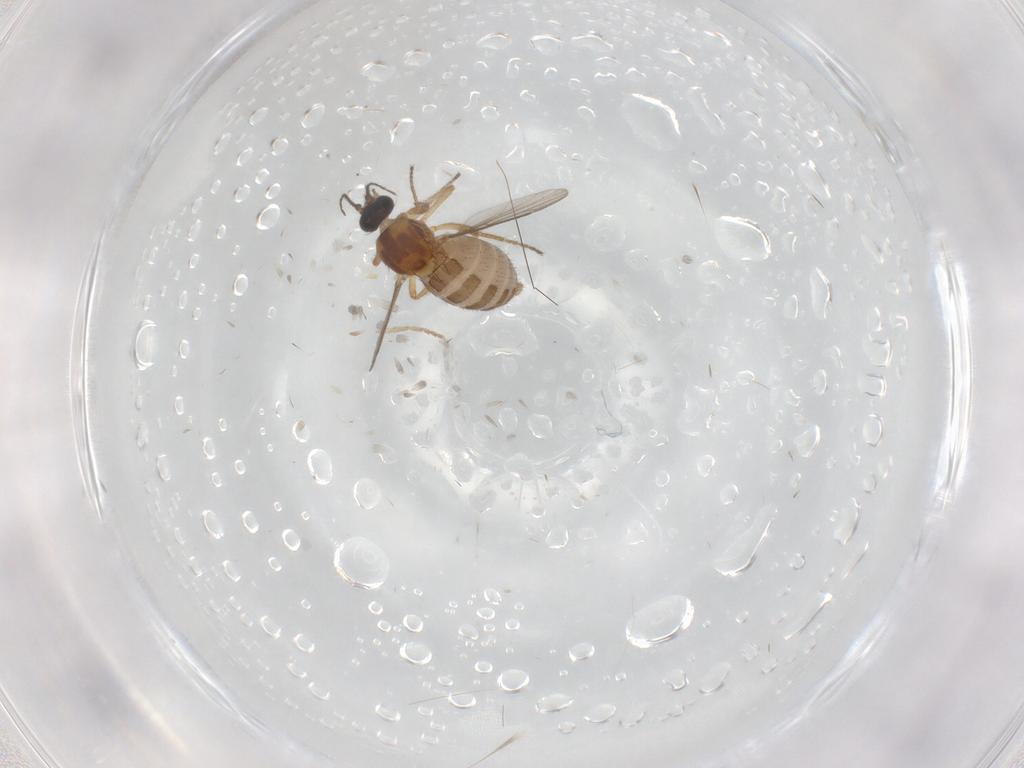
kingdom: Animalia
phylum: Arthropoda
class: Insecta
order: Diptera
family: Ceratopogonidae
